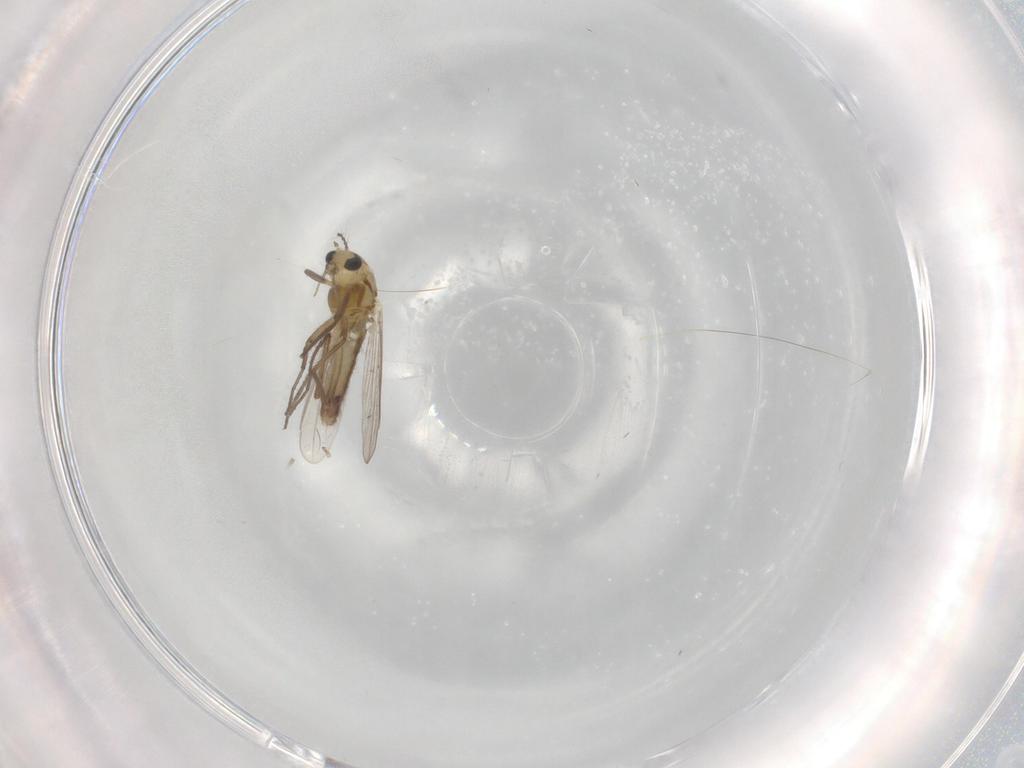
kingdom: Animalia
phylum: Arthropoda
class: Insecta
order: Diptera
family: Chironomidae
